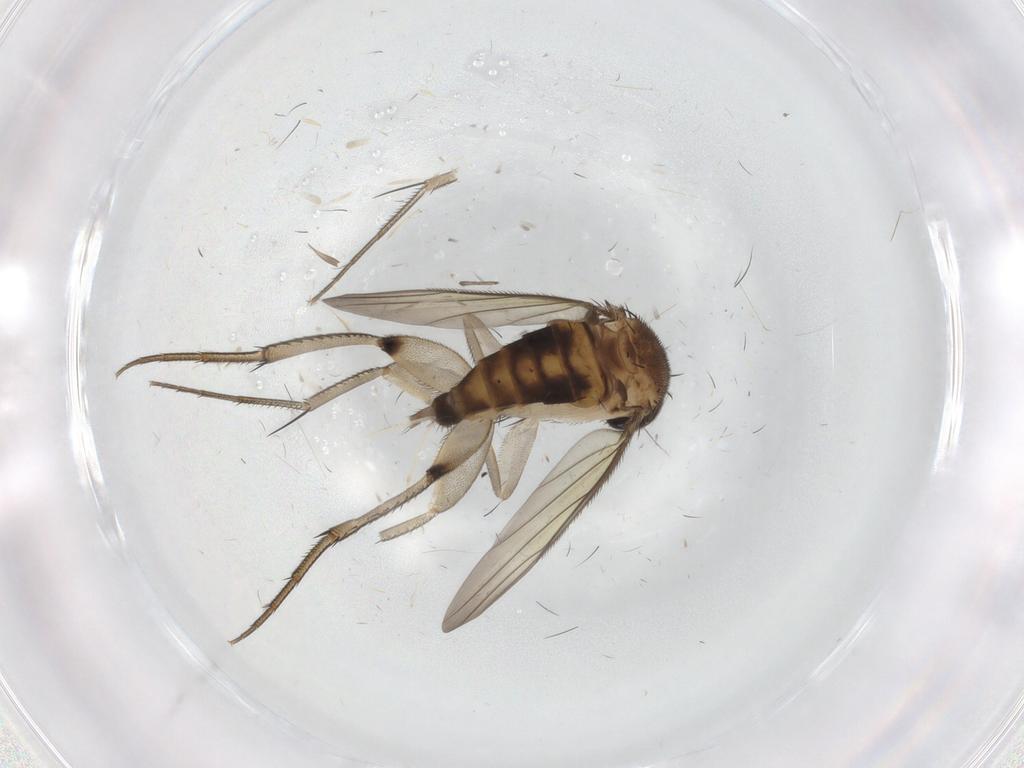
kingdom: Animalia
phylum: Arthropoda
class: Insecta
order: Diptera
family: Phoridae
